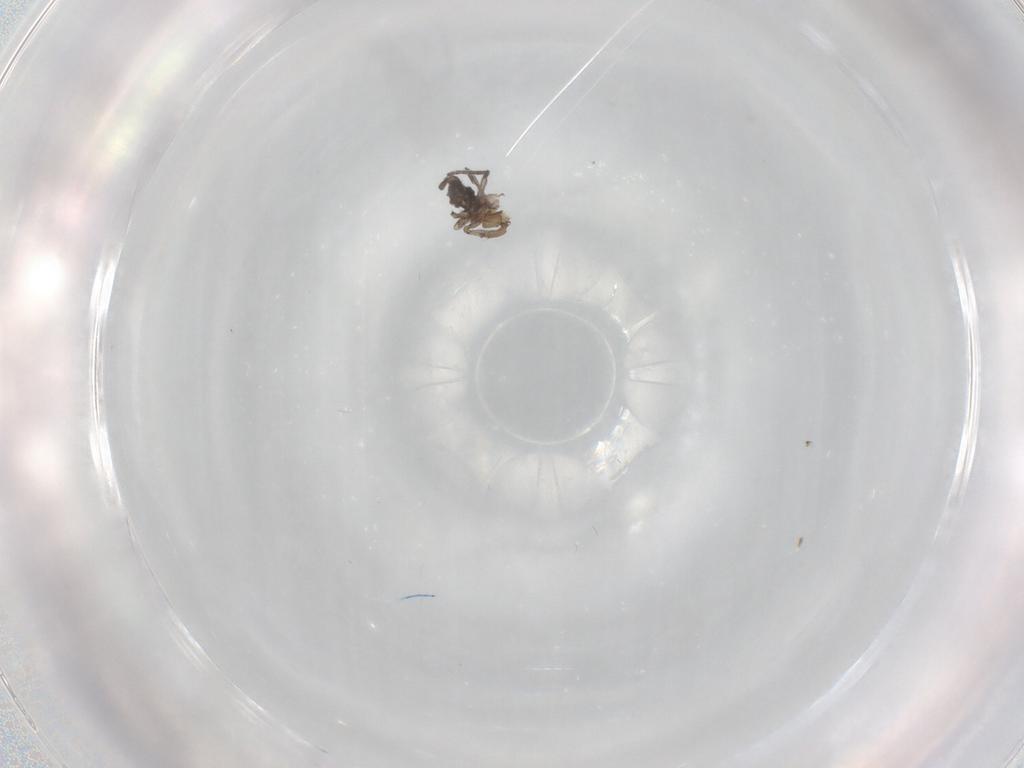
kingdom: Animalia
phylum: Arthropoda
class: Insecta
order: Diptera
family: Sciaridae
